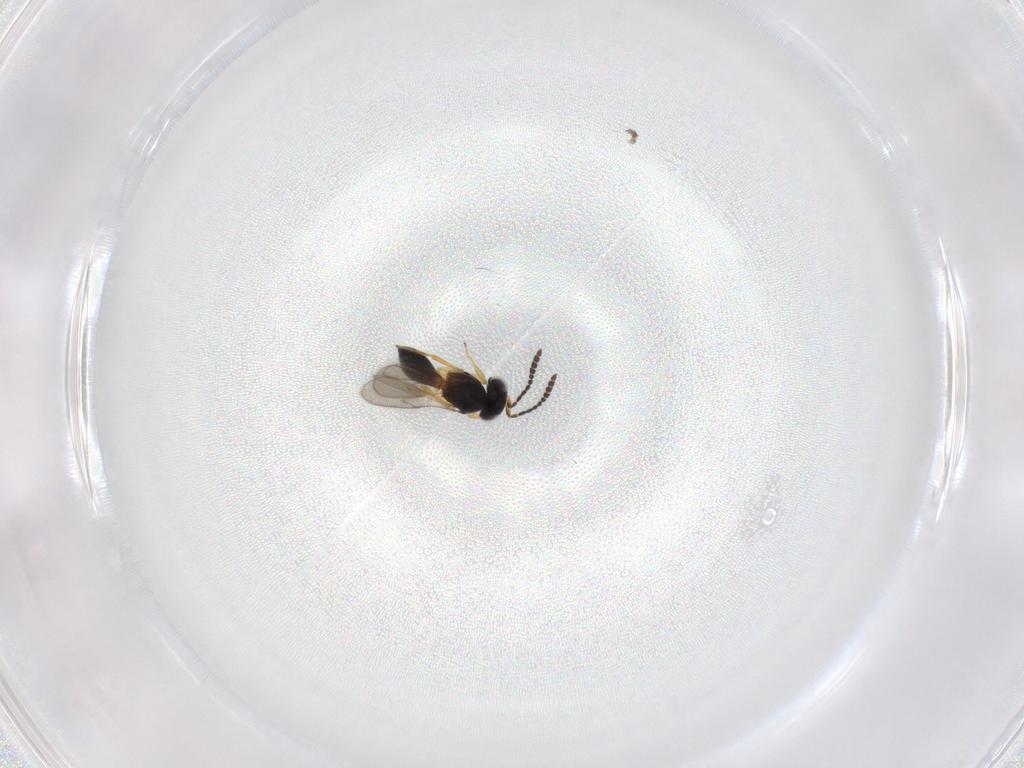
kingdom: Animalia
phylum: Arthropoda
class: Insecta
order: Hymenoptera
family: Scelionidae
